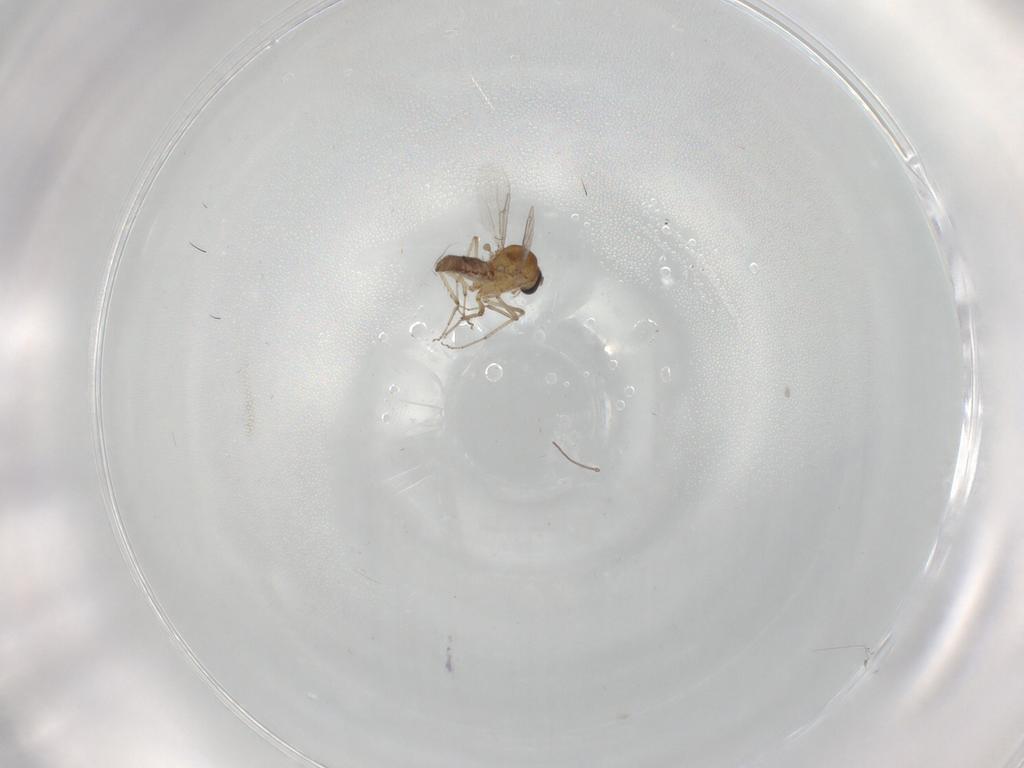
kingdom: Animalia
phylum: Arthropoda
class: Insecta
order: Diptera
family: Ceratopogonidae
